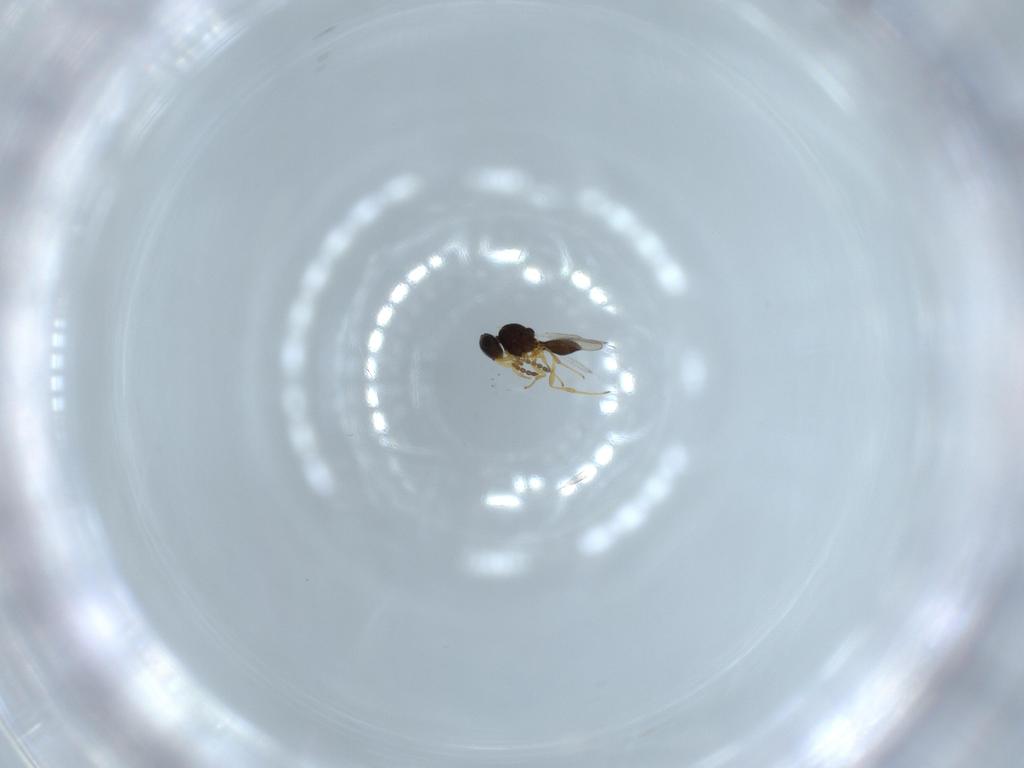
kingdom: Animalia
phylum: Arthropoda
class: Insecta
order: Hymenoptera
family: Platygastridae
